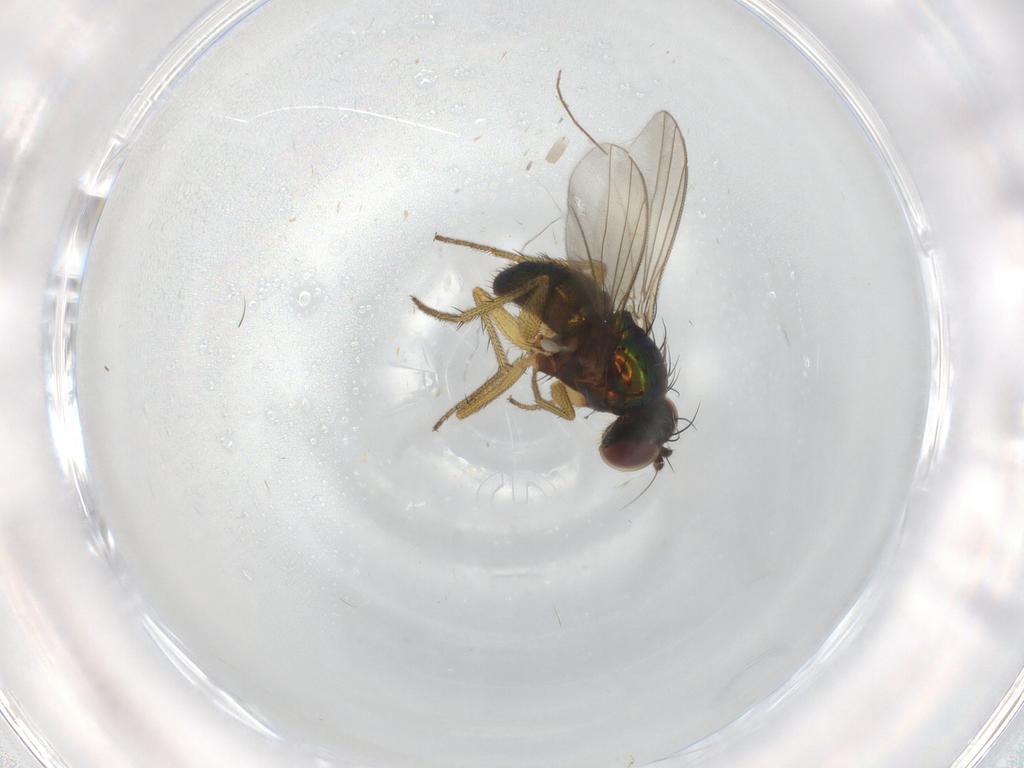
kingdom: Animalia
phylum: Arthropoda
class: Insecta
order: Diptera
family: Dolichopodidae
